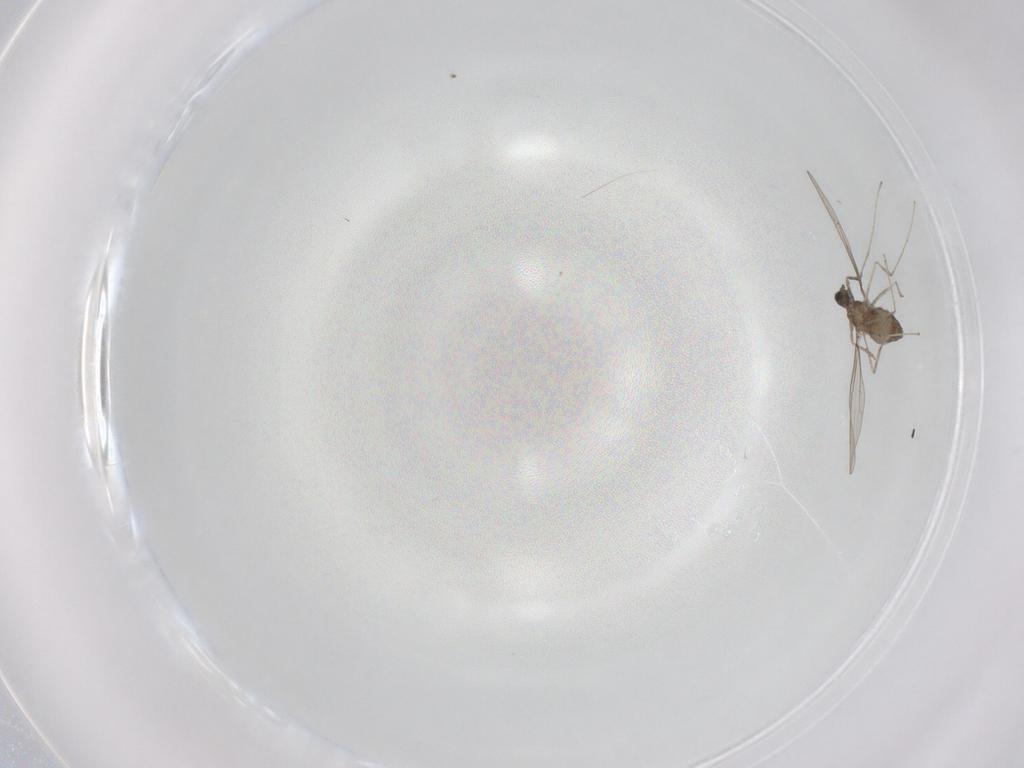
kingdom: Animalia
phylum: Arthropoda
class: Insecta
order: Diptera
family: Cecidomyiidae
